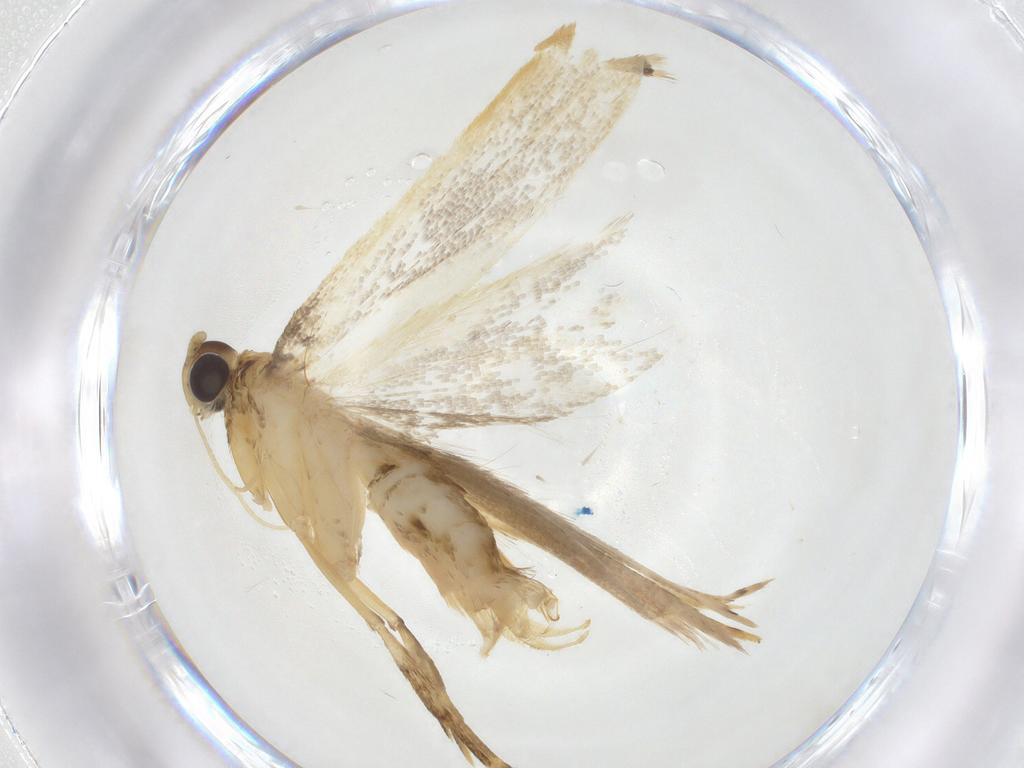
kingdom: Animalia
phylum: Arthropoda
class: Insecta
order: Lepidoptera
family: Lecithoceridae
